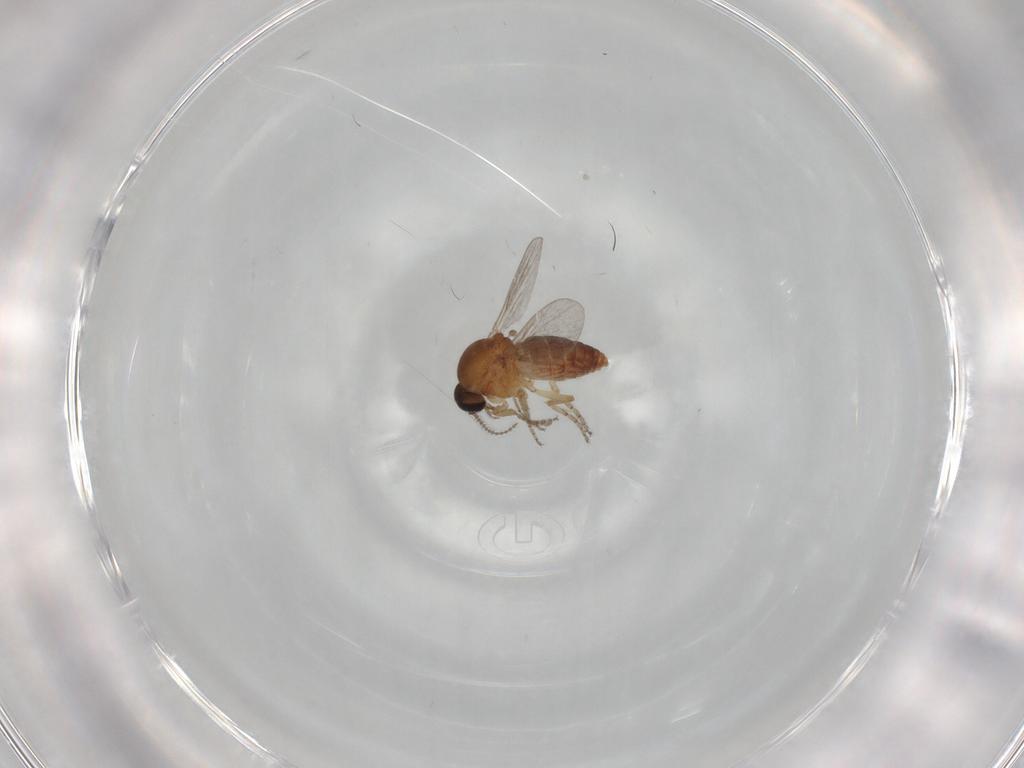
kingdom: Animalia
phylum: Arthropoda
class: Insecta
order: Diptera
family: Ceratopogonidae
